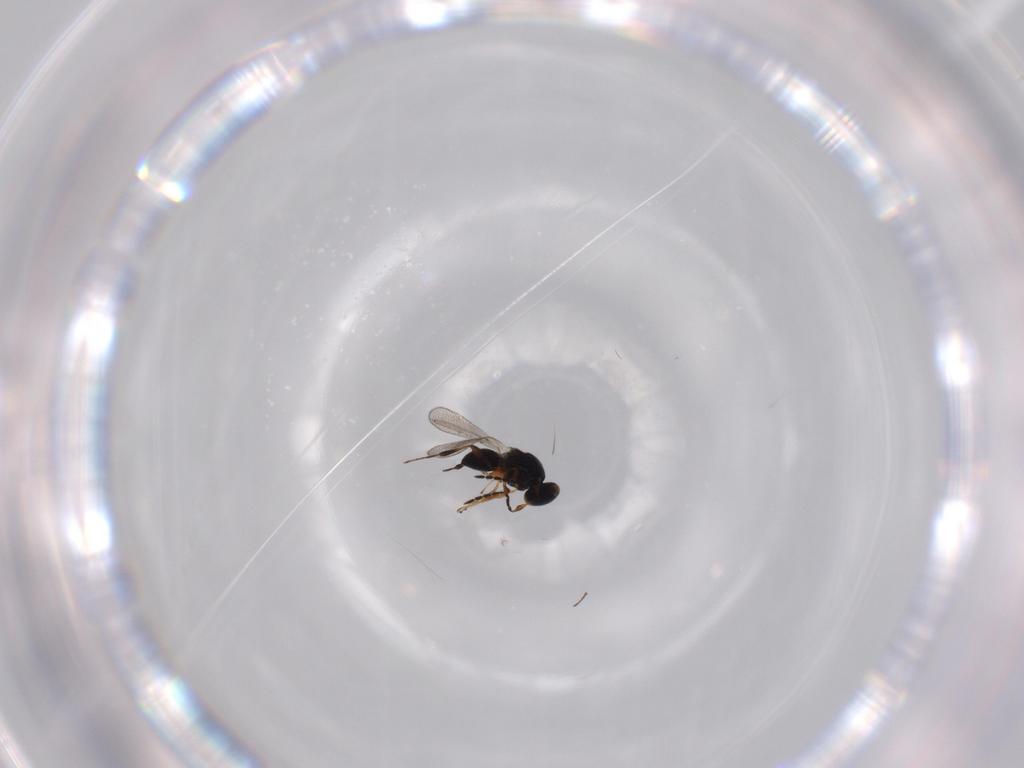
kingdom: Animalia
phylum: Arthropoda
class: Insecta
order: Hymenoptera
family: Platygastridae
